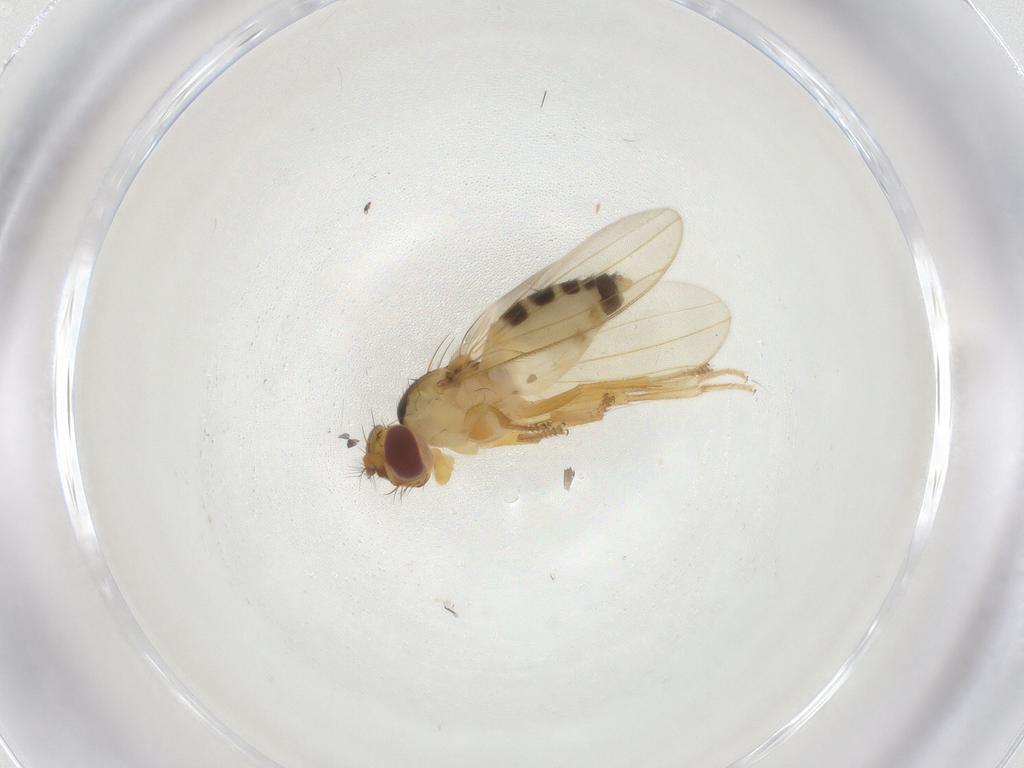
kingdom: Animalia
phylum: Arthropoda
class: Insecta
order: Diptera
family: Periscelididae
